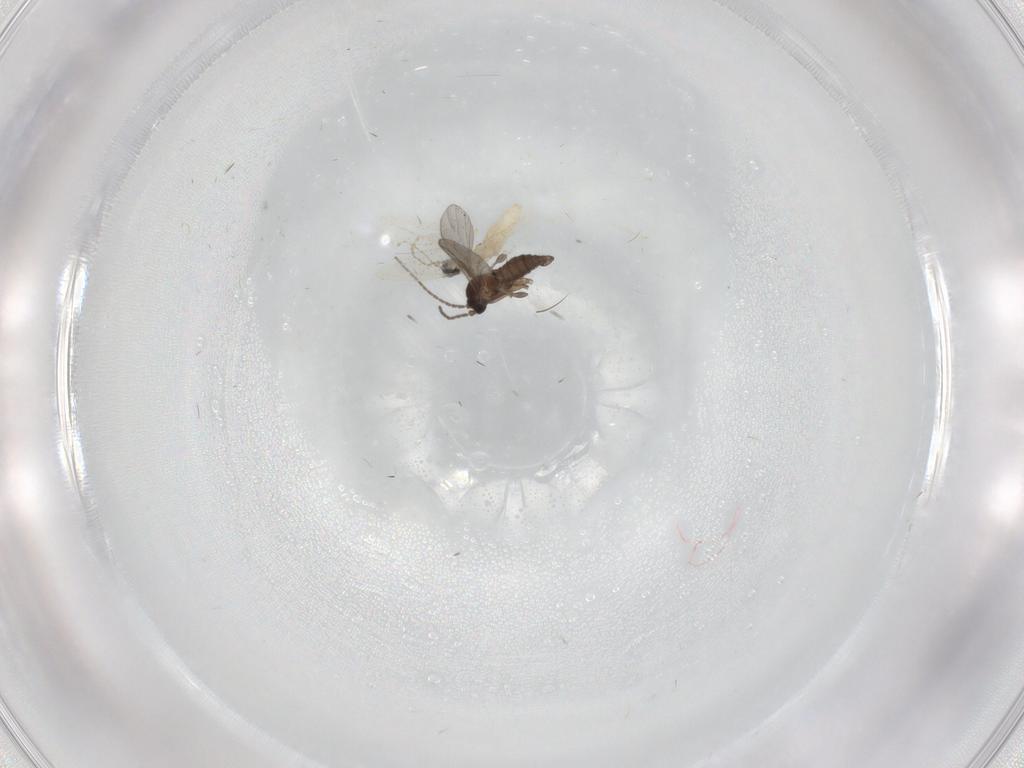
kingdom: Animalia
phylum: Arthropoda
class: Insecta
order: Diptera
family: Sciaridae
